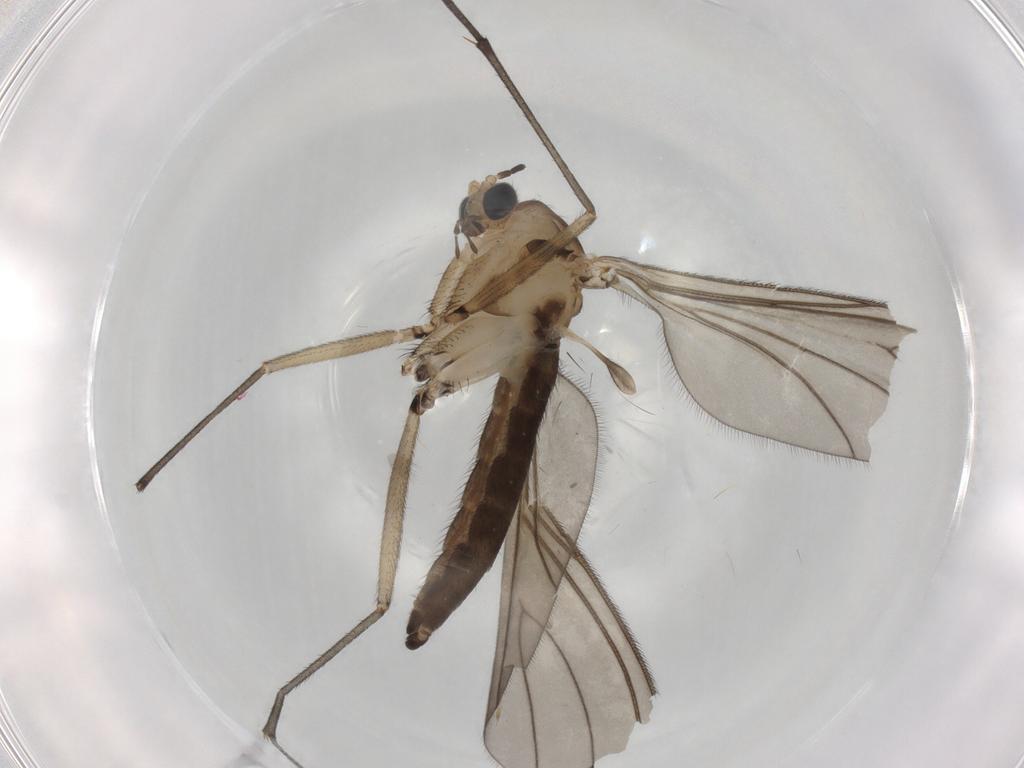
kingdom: Animalia
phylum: Arthropoda
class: Insecta
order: Diptera
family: Sciaridae
